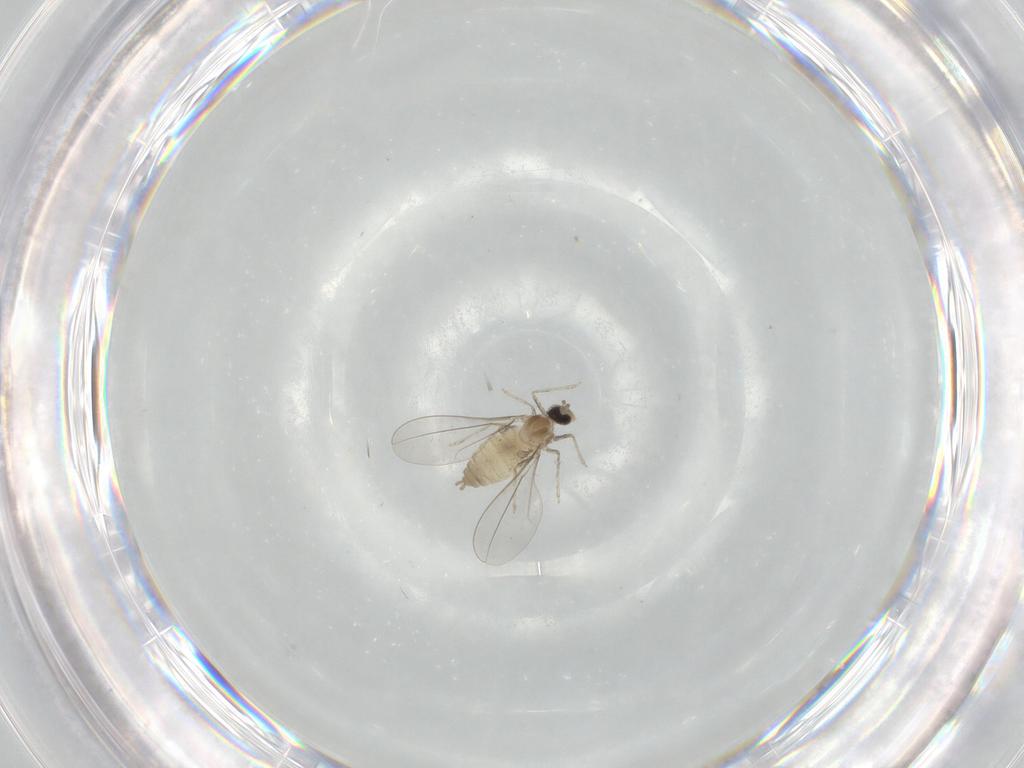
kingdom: Animalia
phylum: Arthropoda
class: Insecta
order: Diptera
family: Cecidomyiidae
